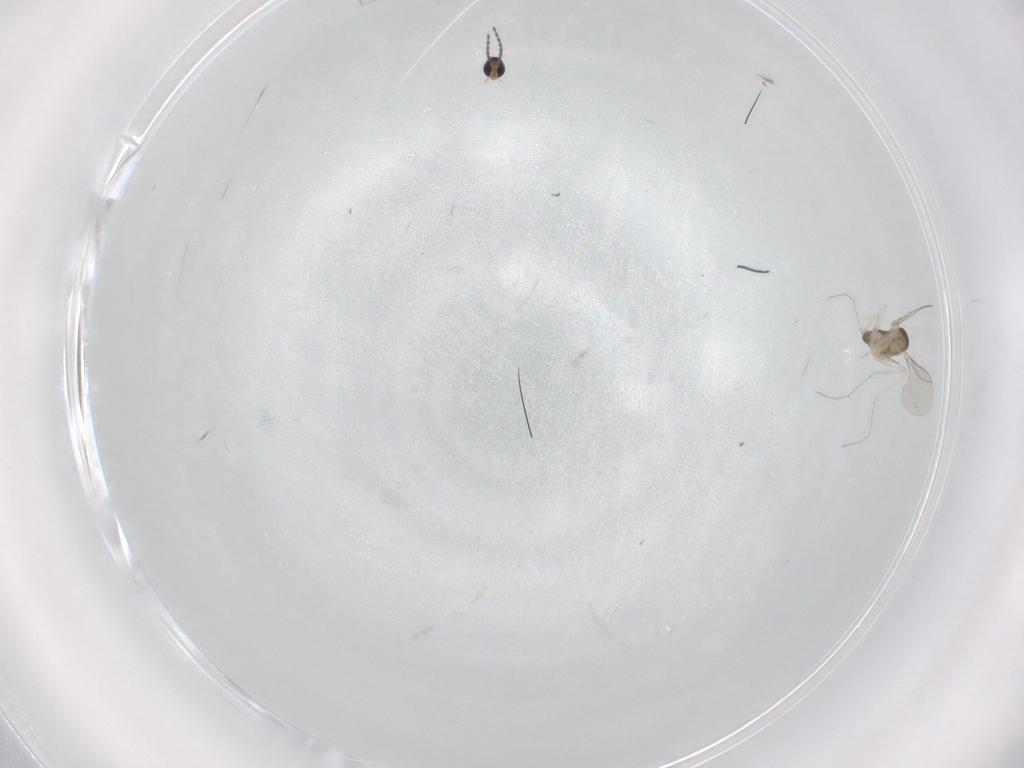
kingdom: Animalia
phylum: Arthropoda
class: Insecta
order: Diptera
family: Cecidomyiidae
